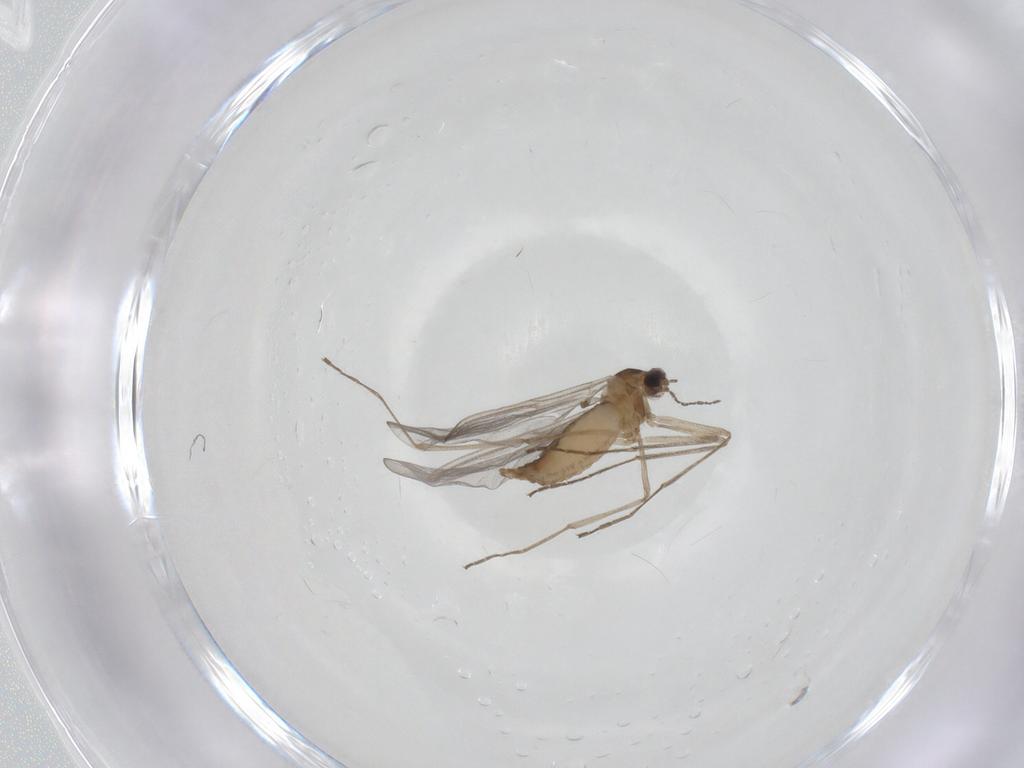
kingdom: Animalia
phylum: Arthropoda
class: Insecta
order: Diptera
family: Cecidomyiidae
